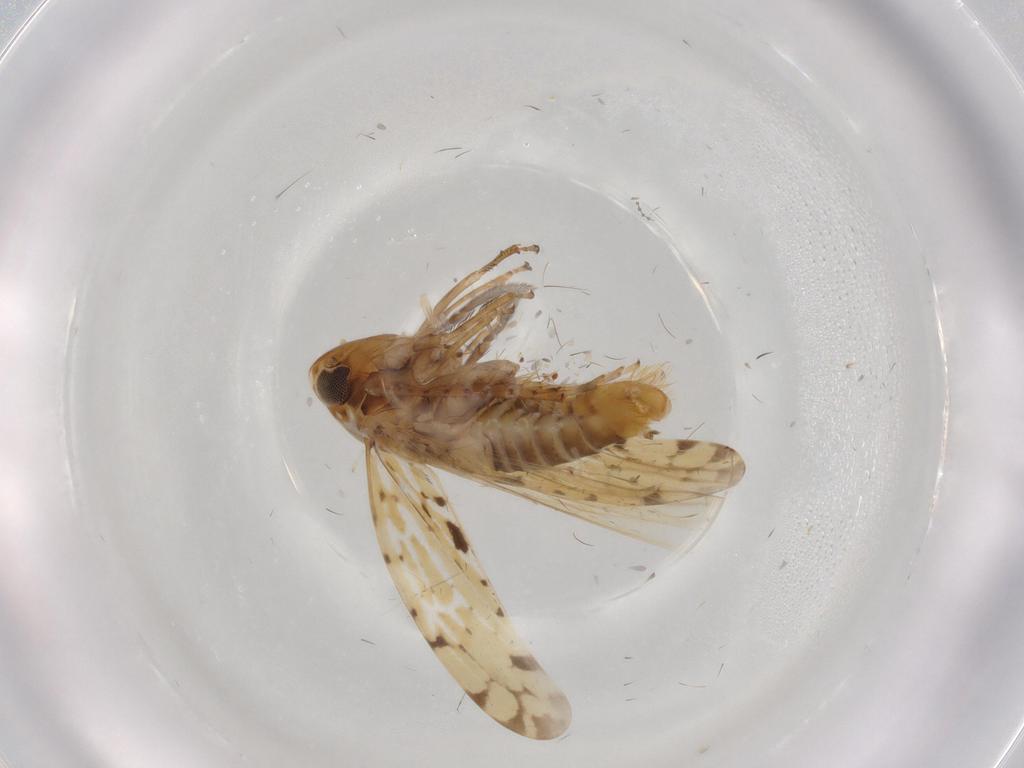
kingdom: Animalia
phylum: Arthropoda
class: Insecta
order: Hemiptera
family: Cicadellidae
